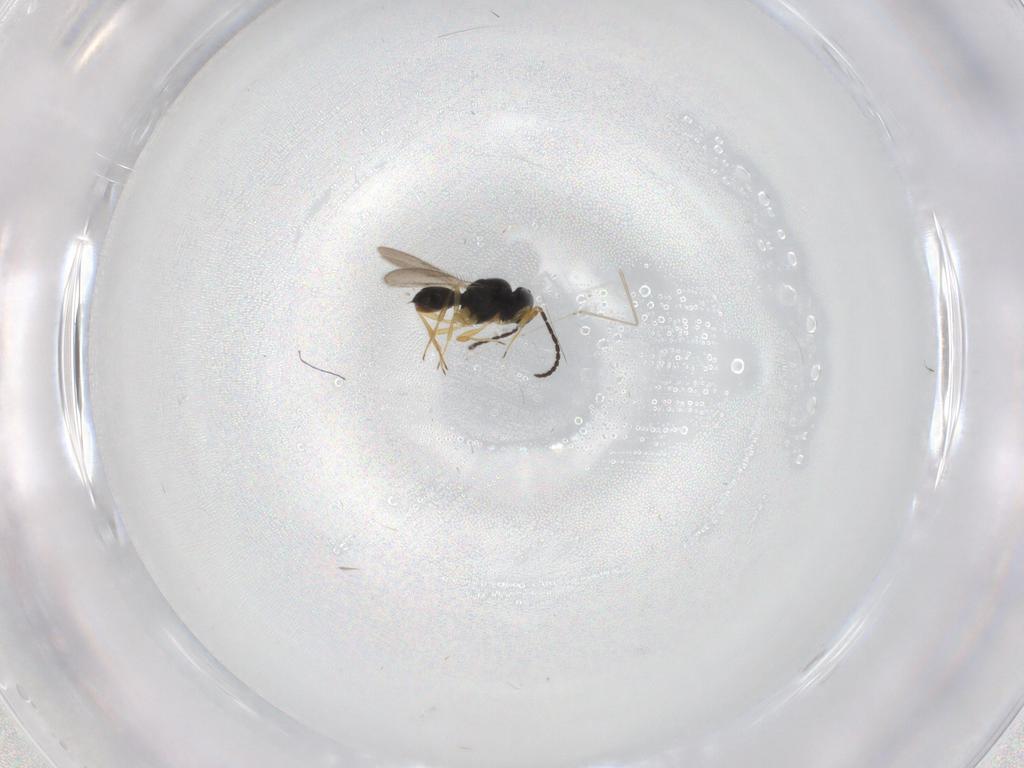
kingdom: Animalia
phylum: Arthropoda
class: Insecta
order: Hymenoptera
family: Scelionidae
